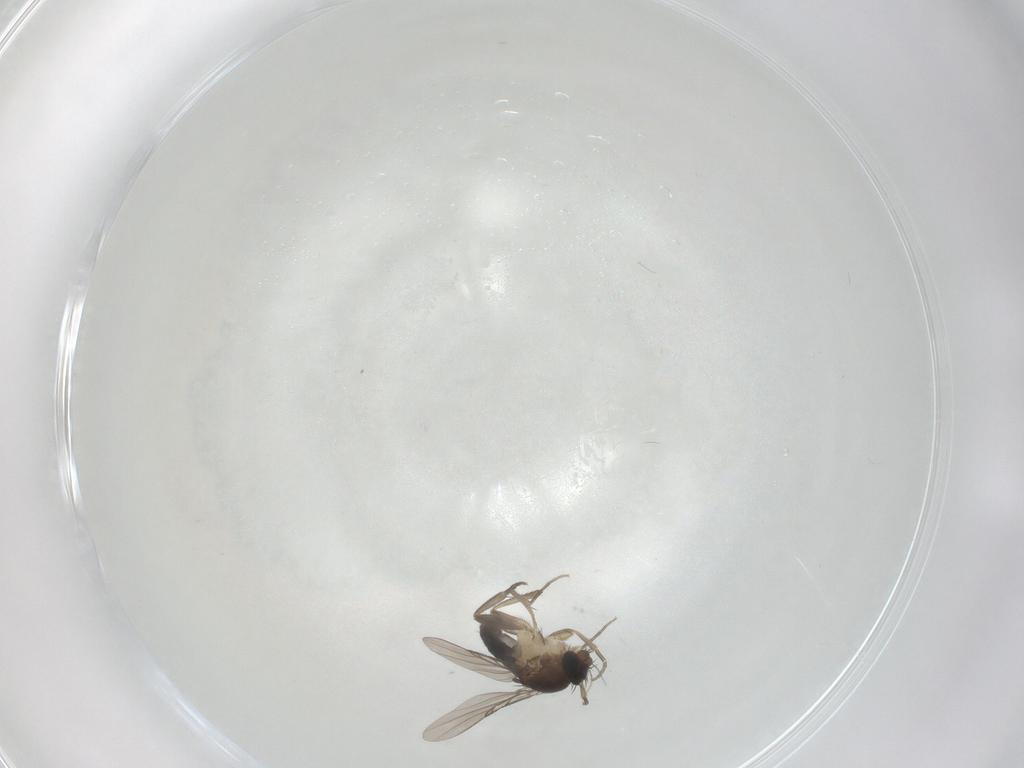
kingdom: Animalia
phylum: Arthropoda
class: Insecta
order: Diptera
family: Phoridae
